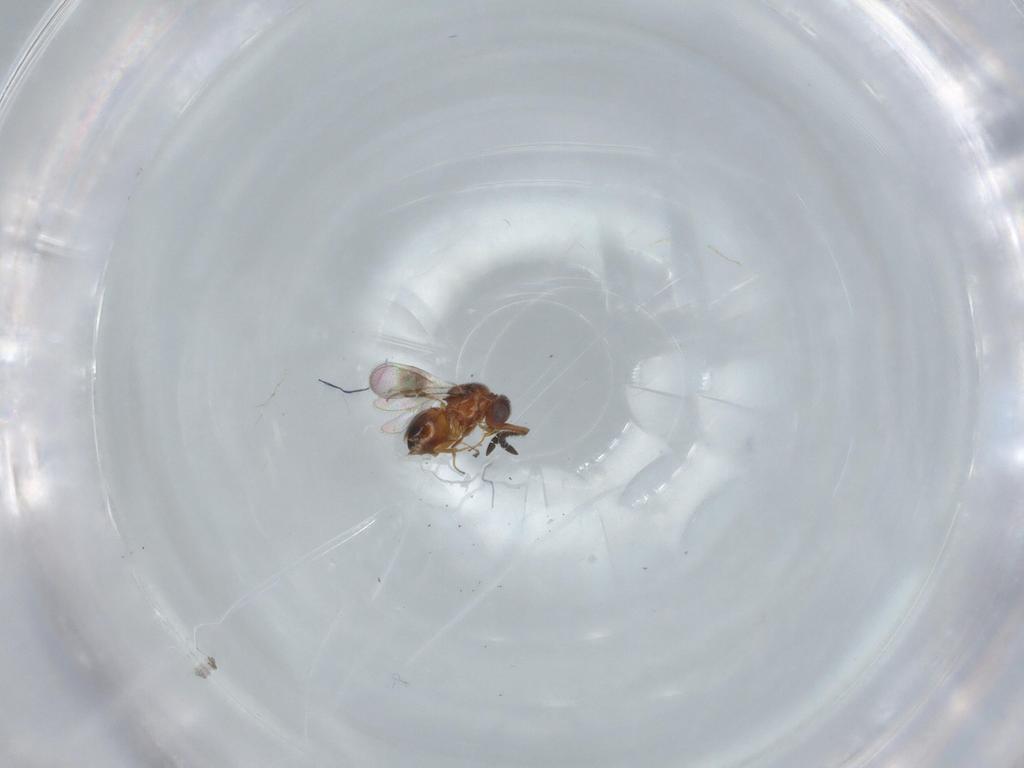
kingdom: Animalia
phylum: Arthropoda
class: Insecta
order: Hymenoptera
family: Ceraphronidae
